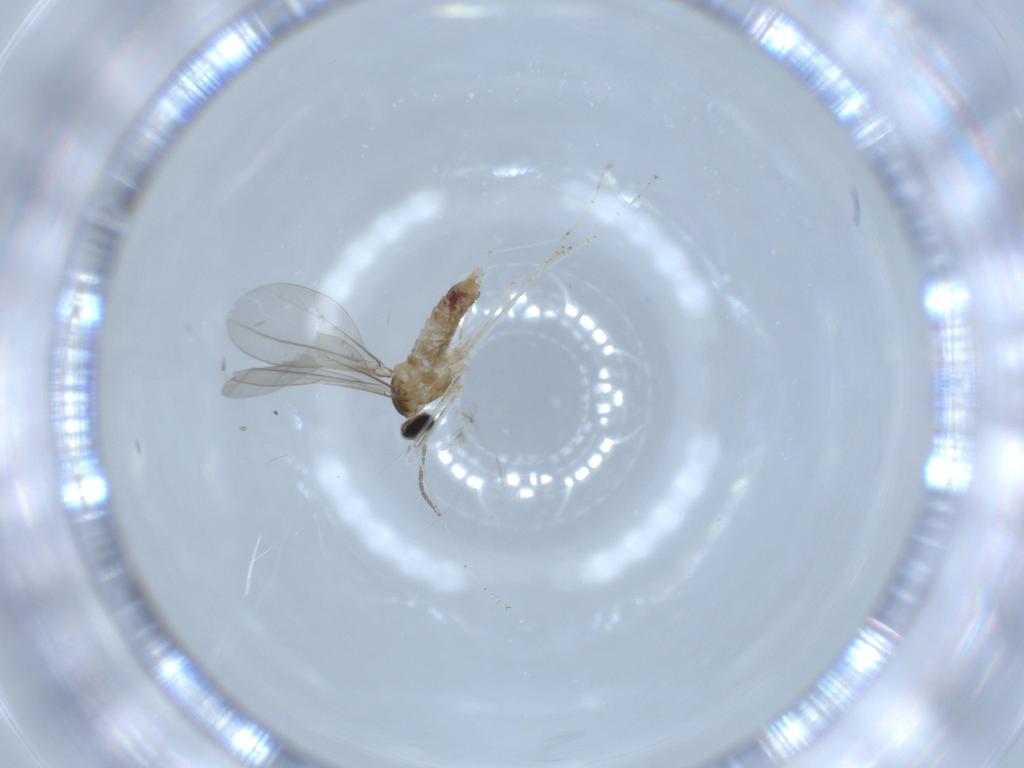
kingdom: Animalia
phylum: Arthropoda
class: Insecta
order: Diptera
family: Cecidomyiidae
